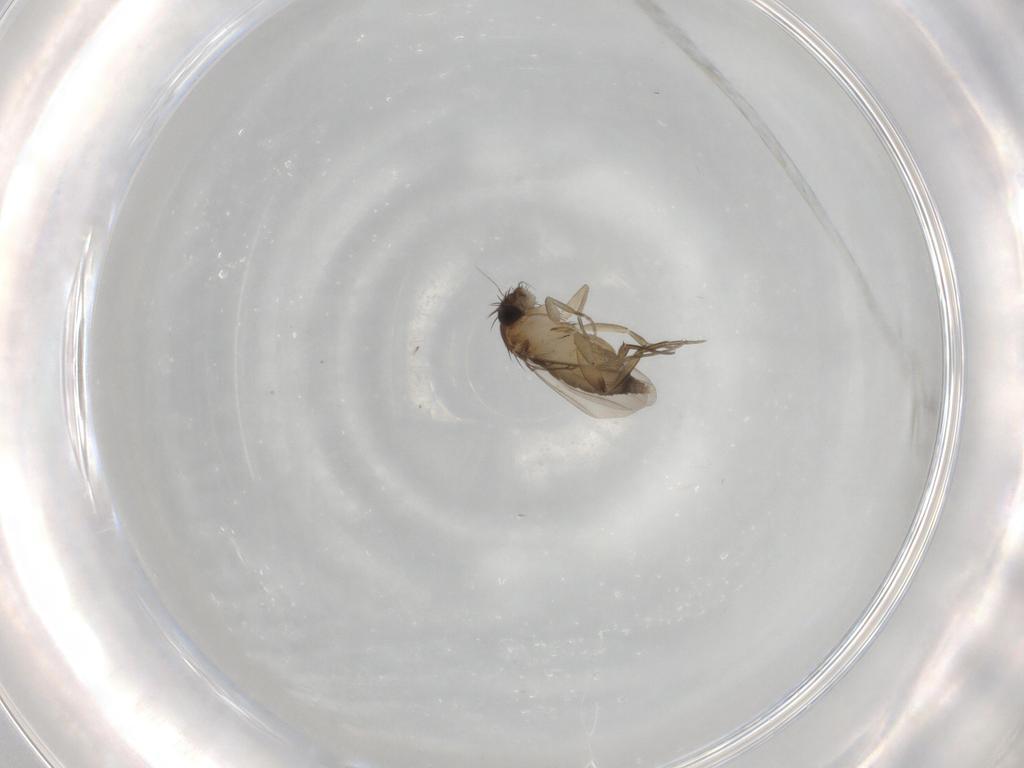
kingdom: Animalia
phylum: Arthropoda
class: Insecta
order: Diptera
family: Phoridae
